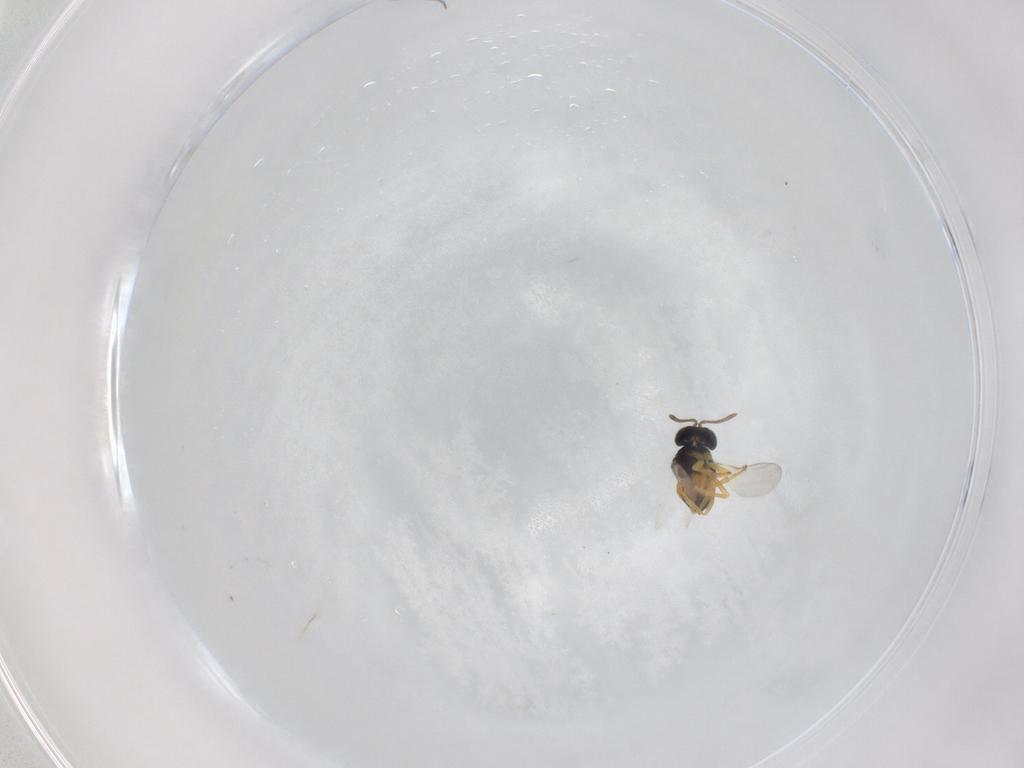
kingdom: Animalia
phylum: Arthropoda
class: Insecta
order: Hymenoptera
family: Encyrtidae
